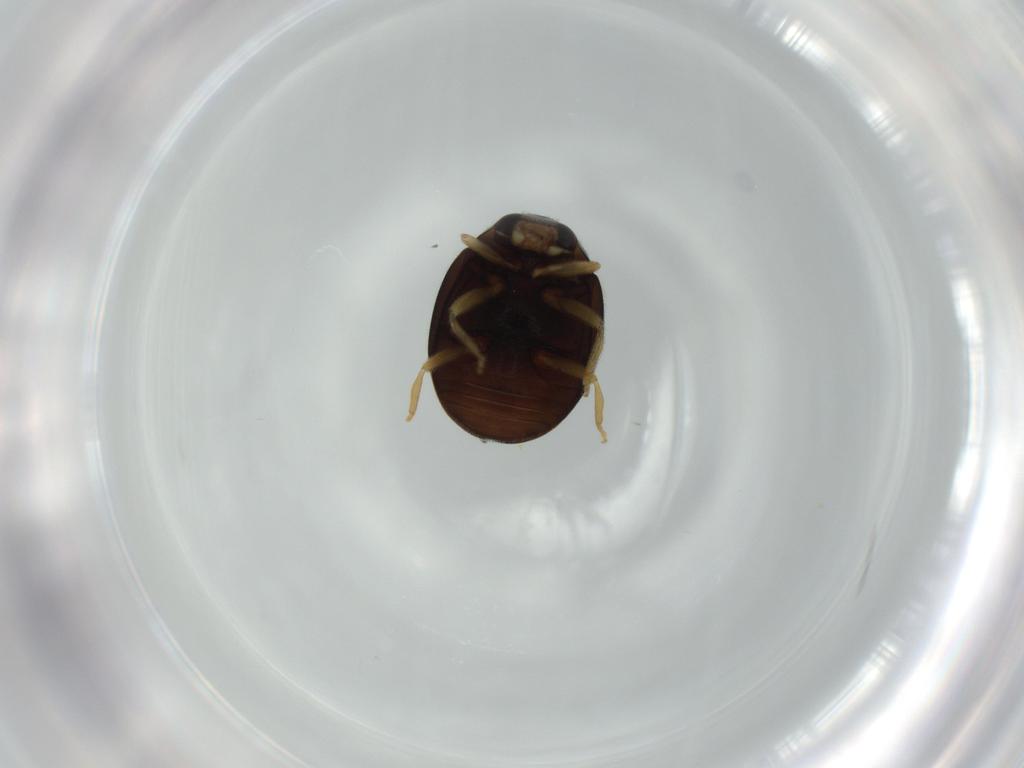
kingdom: Animalia
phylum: Arthropoda
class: Insecta
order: Coleoptera
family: Coccinellidae
